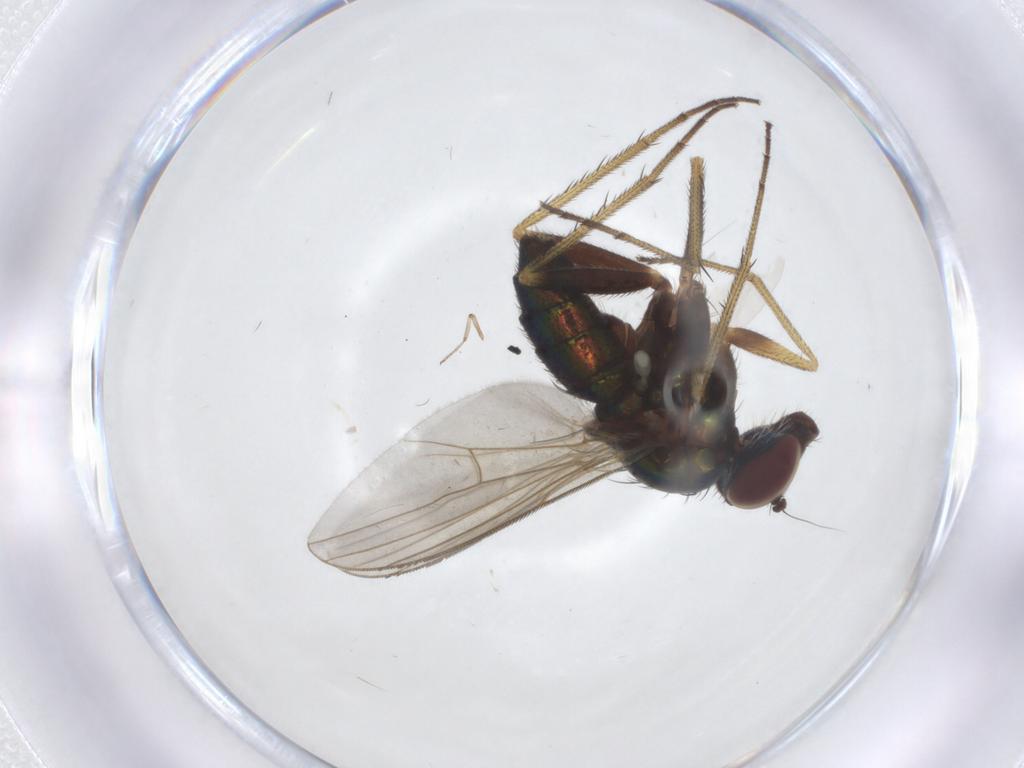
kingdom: Animalia
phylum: Arthropoda
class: Insecta
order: Diptera
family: Dolichopodidae
